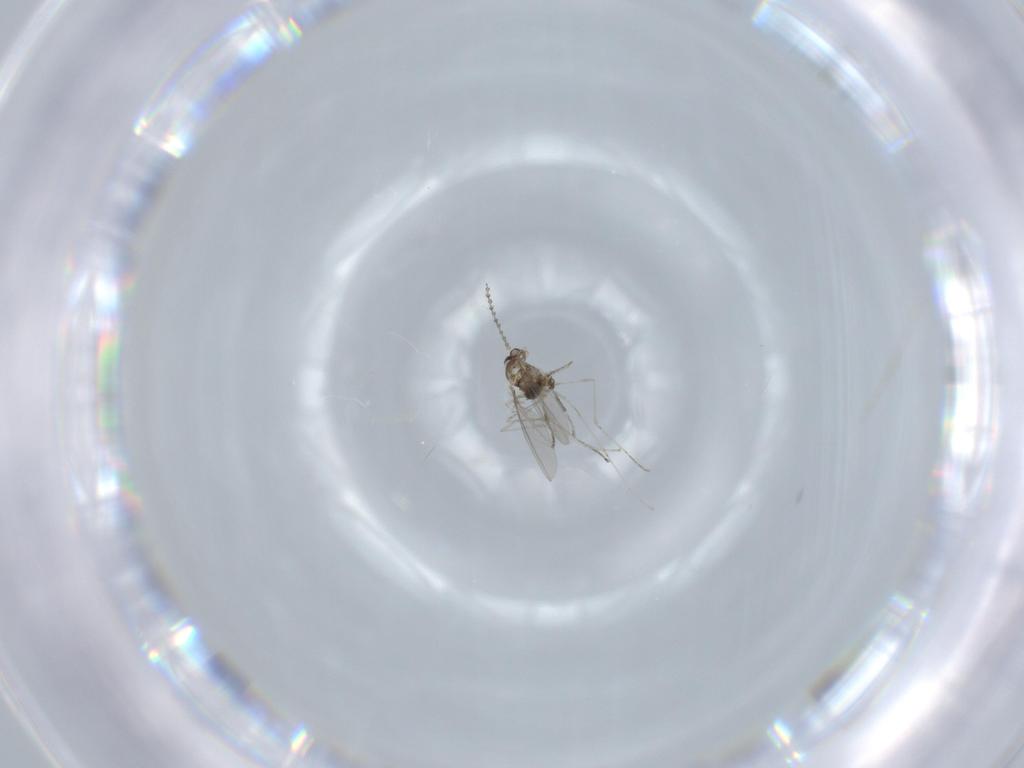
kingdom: Animalia
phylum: Arthropoda
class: Insecta
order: Diptera
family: Cecidomyiidae
